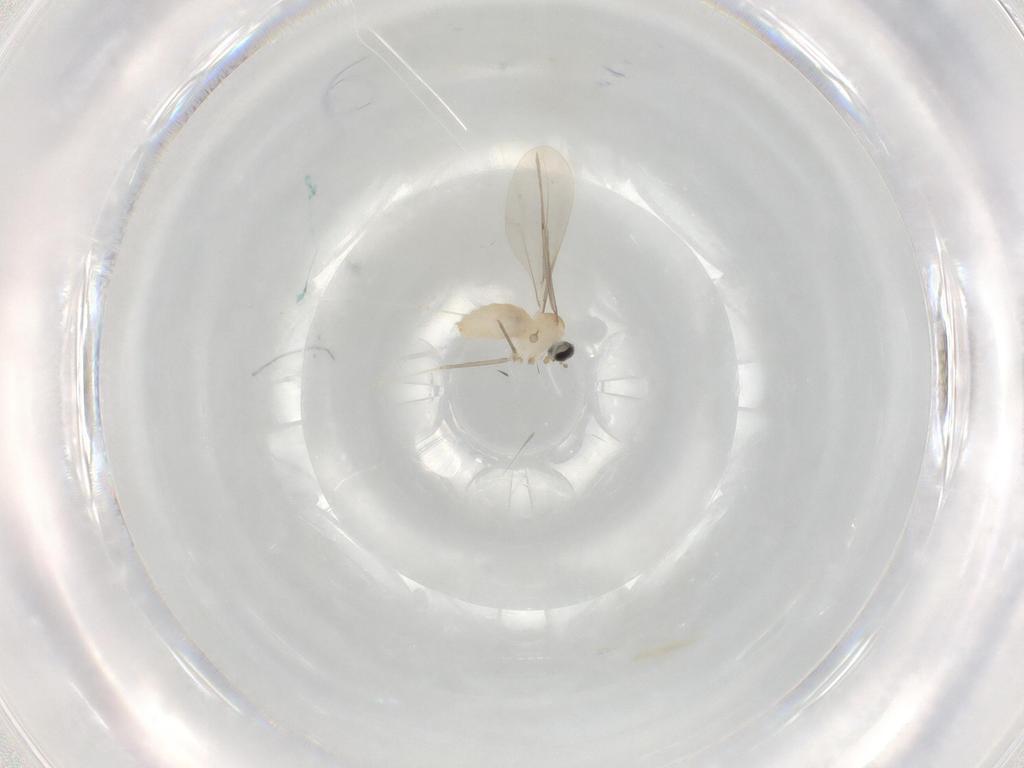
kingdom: Animalia
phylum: Arthropoda
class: Insecta
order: Diptera
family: Cecidomyiidae
